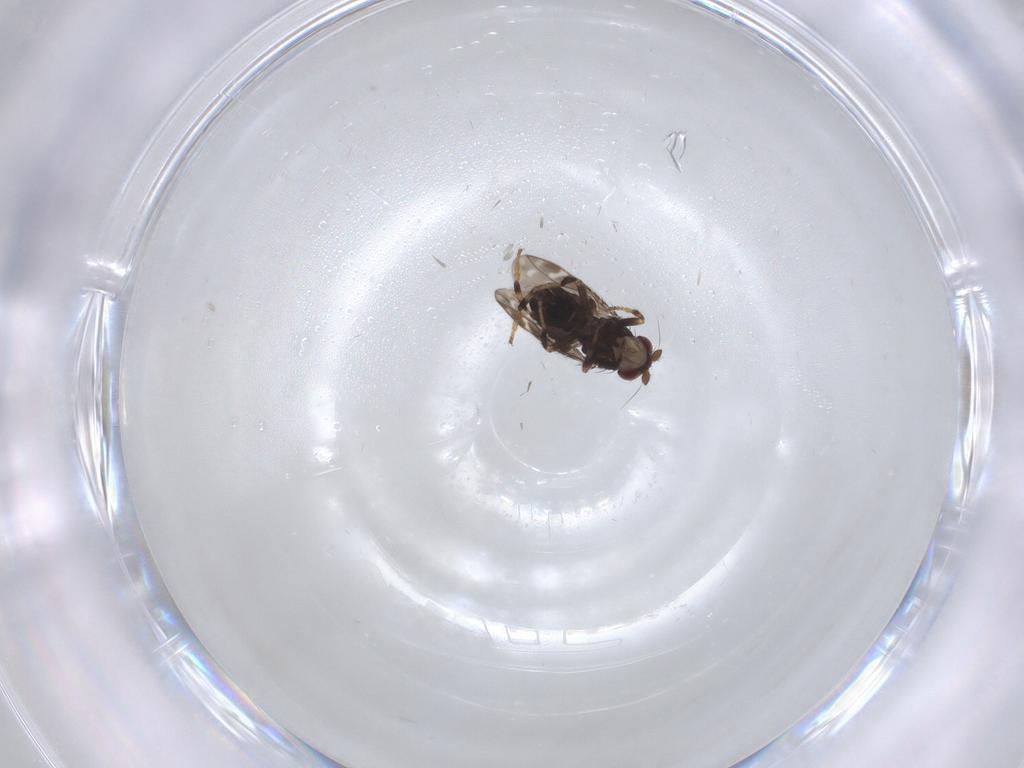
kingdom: Animalia
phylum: Arthropoda
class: Insecta
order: Diptera
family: Sphaeroceridae
